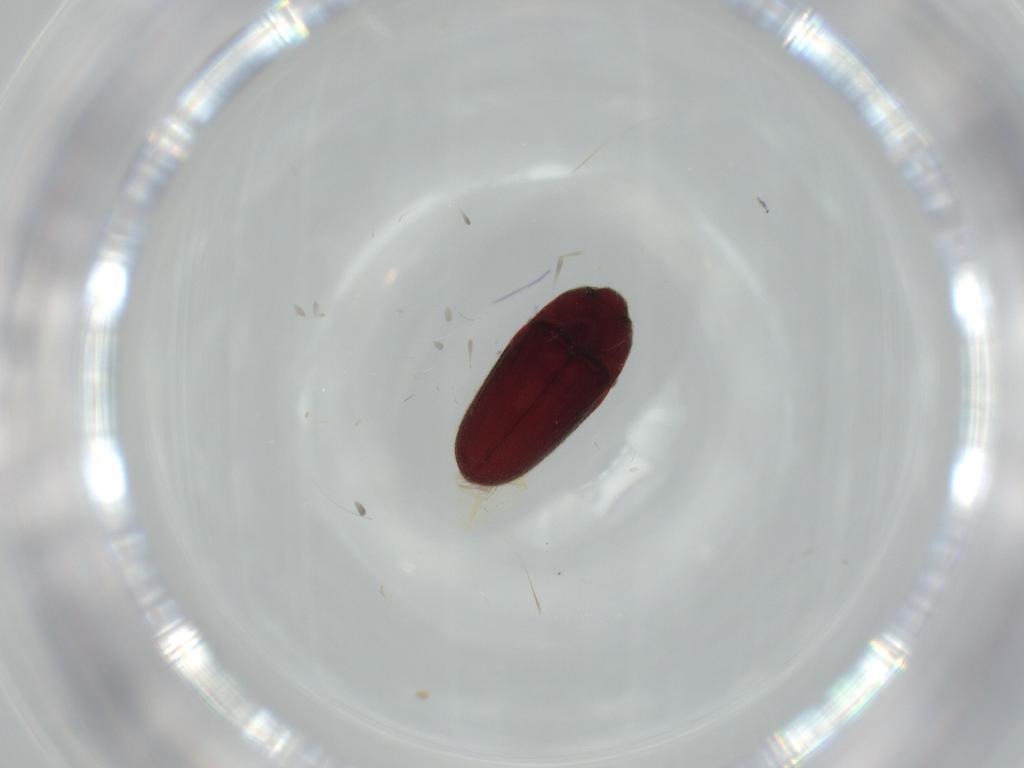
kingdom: Animalia
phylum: Arthropoda
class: Insecta
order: Coleoptera
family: Throscidae
